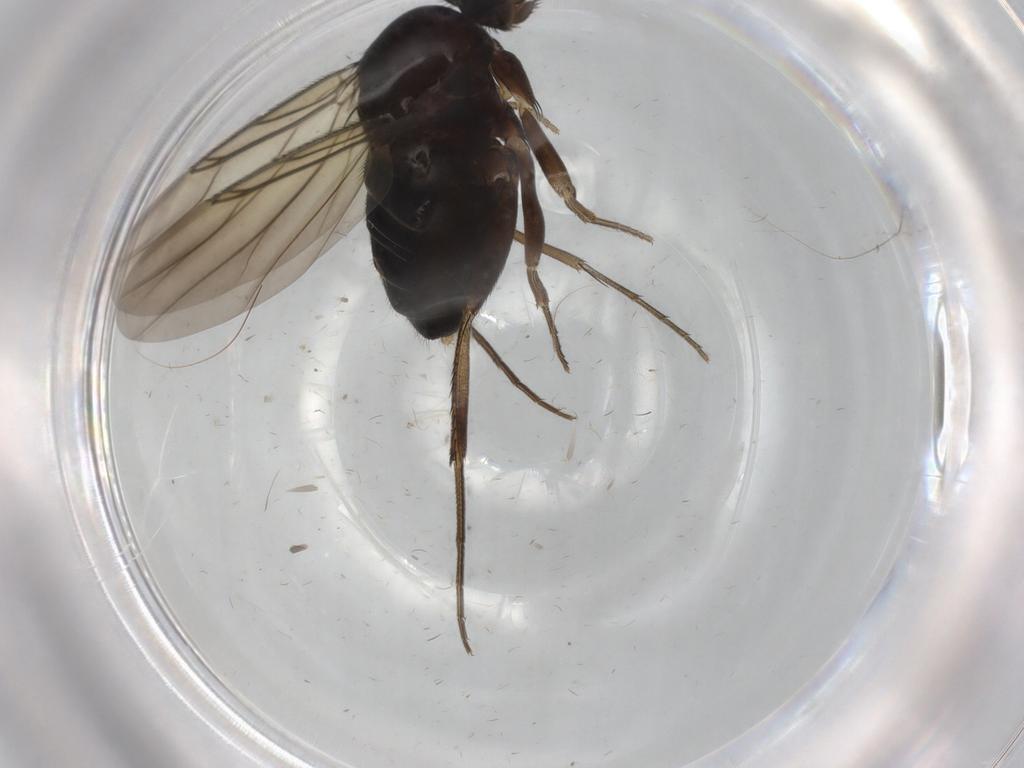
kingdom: Animalia
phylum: Arthropoda
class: Insecta
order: Diptera
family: Phoridae
